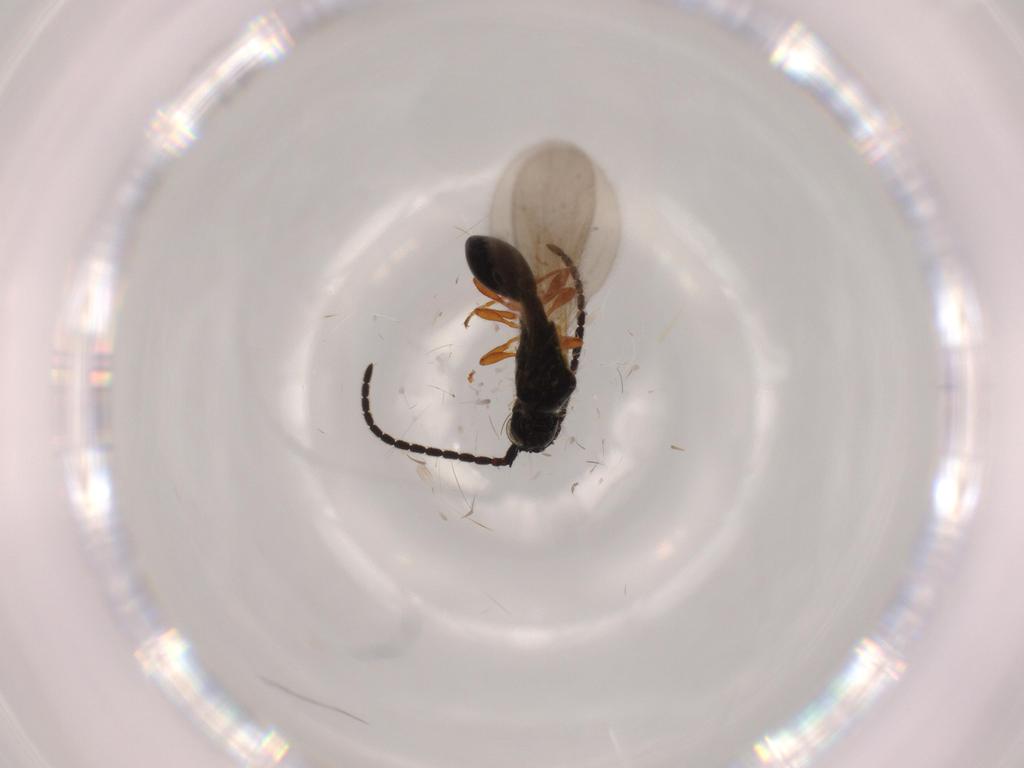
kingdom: Animalia
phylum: Arthropoda
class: Insecta
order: Hymenoptera
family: Diapriidae
